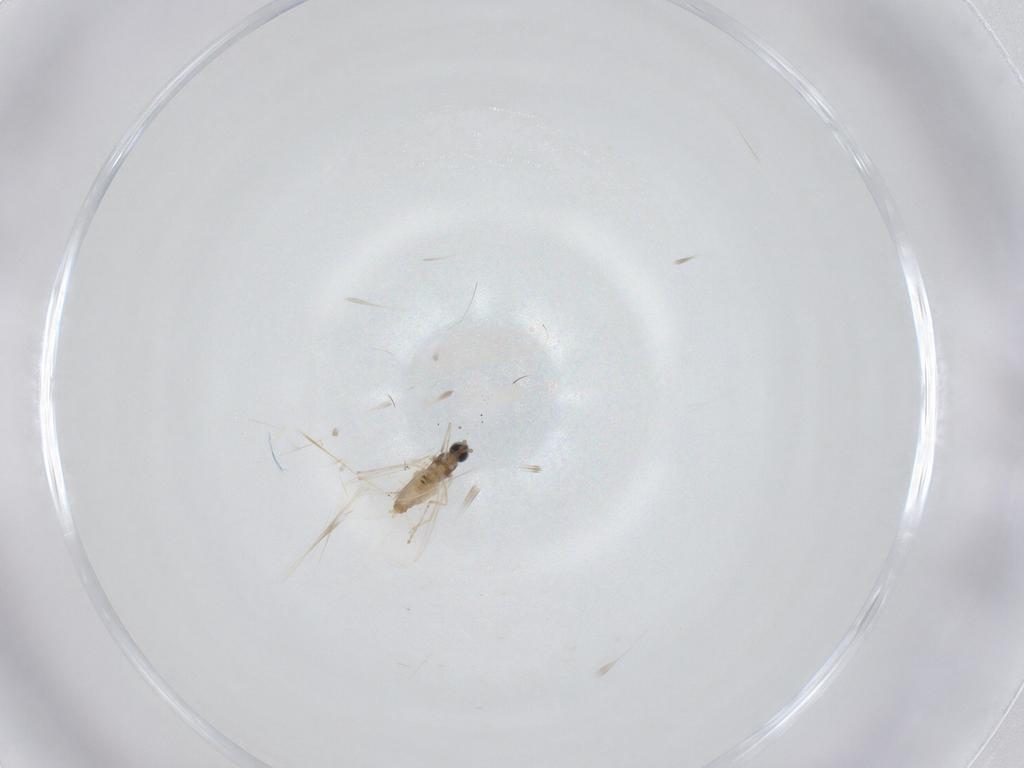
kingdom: Animalia
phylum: Arthropoda
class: Insecta
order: Diptera
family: Cecidomyiidae
